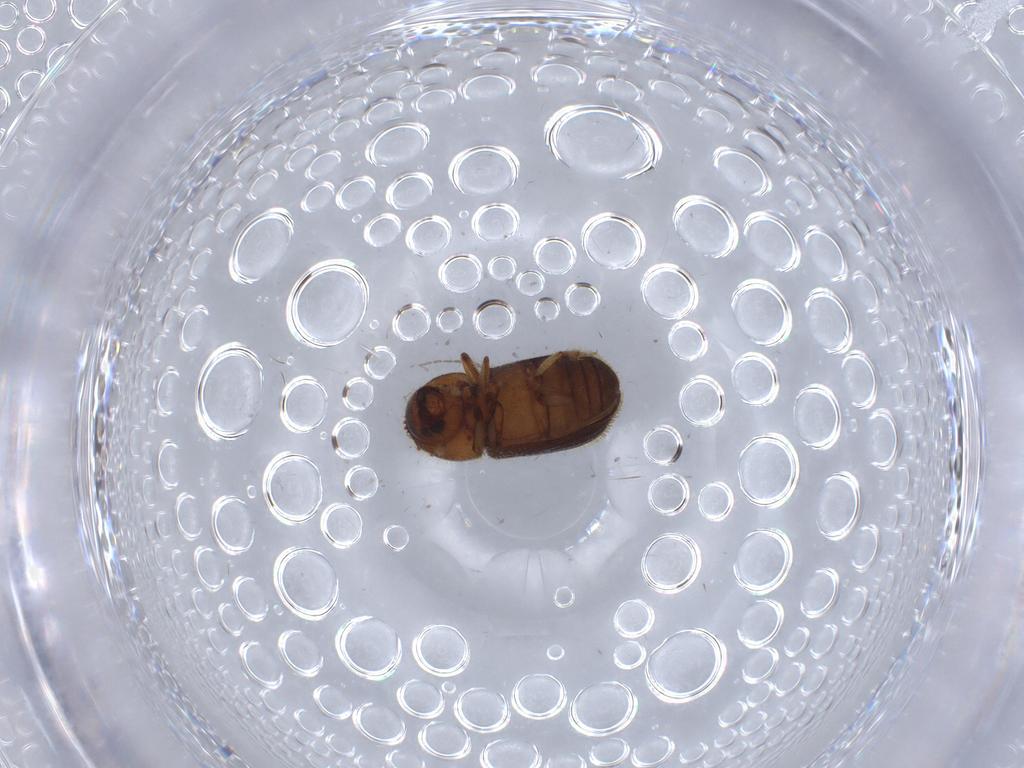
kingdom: Animalia
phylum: Arthropoda
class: Insecta
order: Coleoptera
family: Curculionidae
